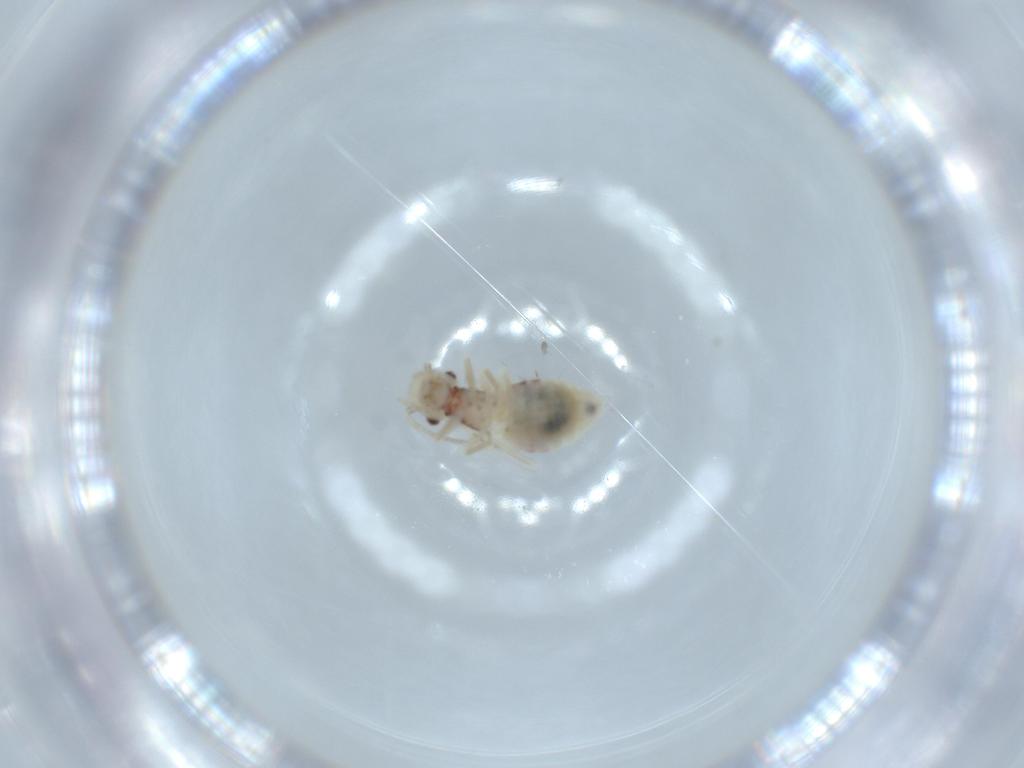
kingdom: Animalia
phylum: Arthropoda
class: Insecta
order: Psocodea
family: Caeciliusidae
